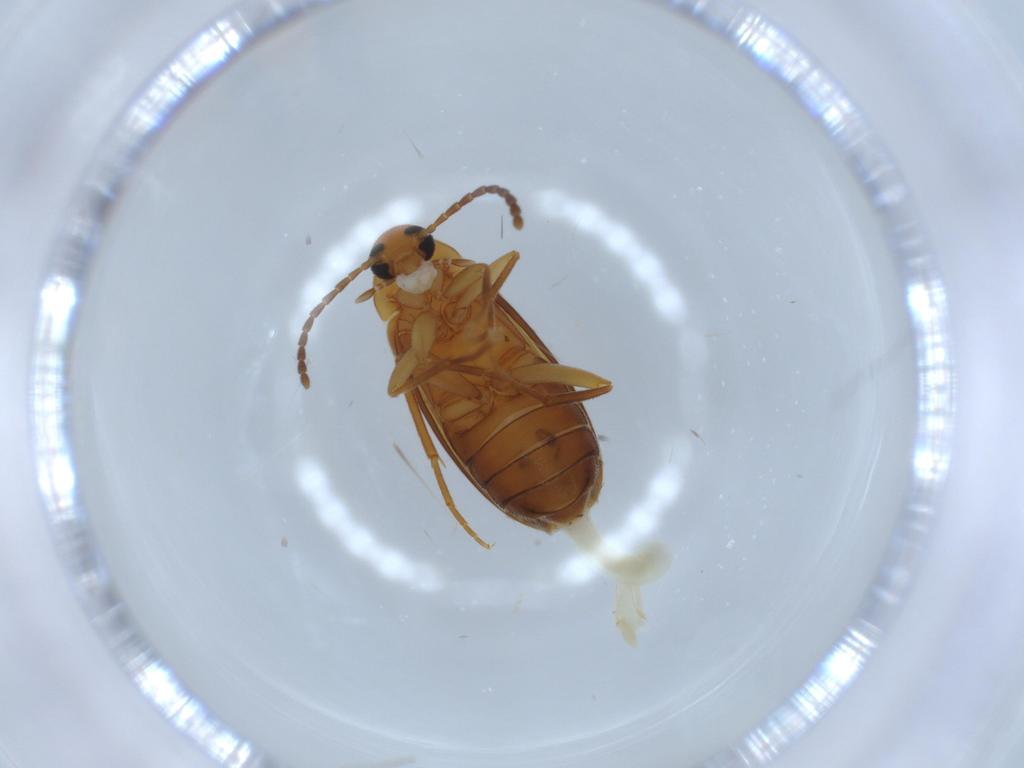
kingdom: Animalia
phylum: Arthropoda
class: Insecta
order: Coleoptera
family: Scraptiidae
